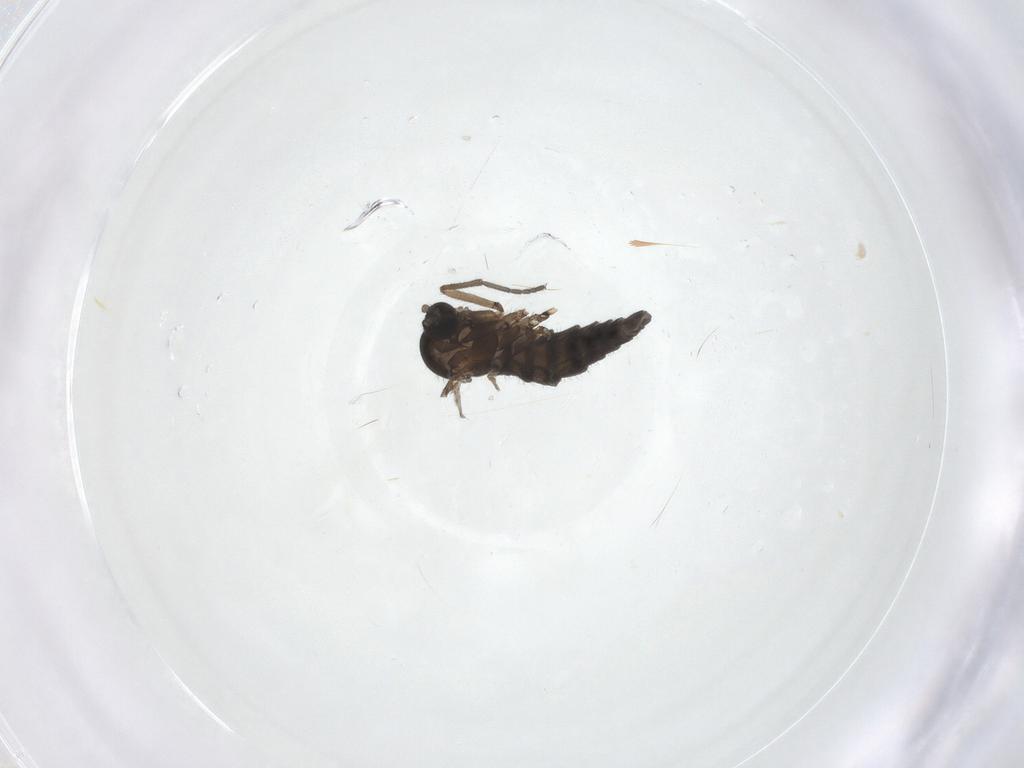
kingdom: Animalia
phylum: Arthropoda
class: Insecta
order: Diptera
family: Sciaridae
